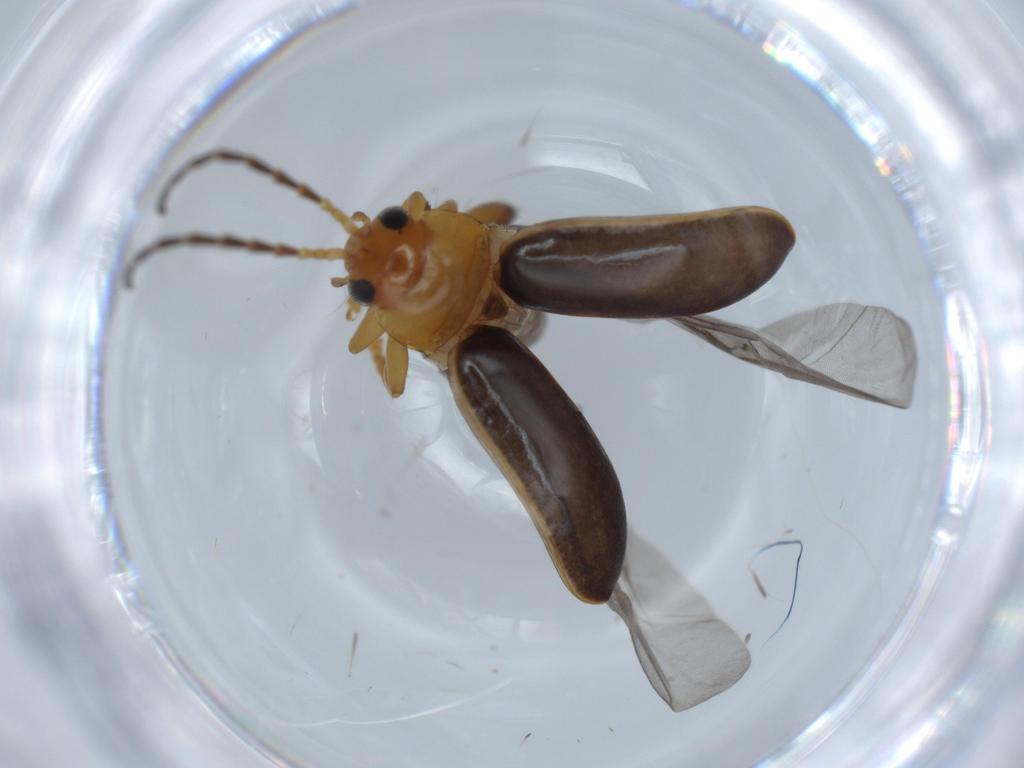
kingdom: Animalia
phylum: Arthropoda
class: Insecta
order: Coleoptera
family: Chrysomelidae
